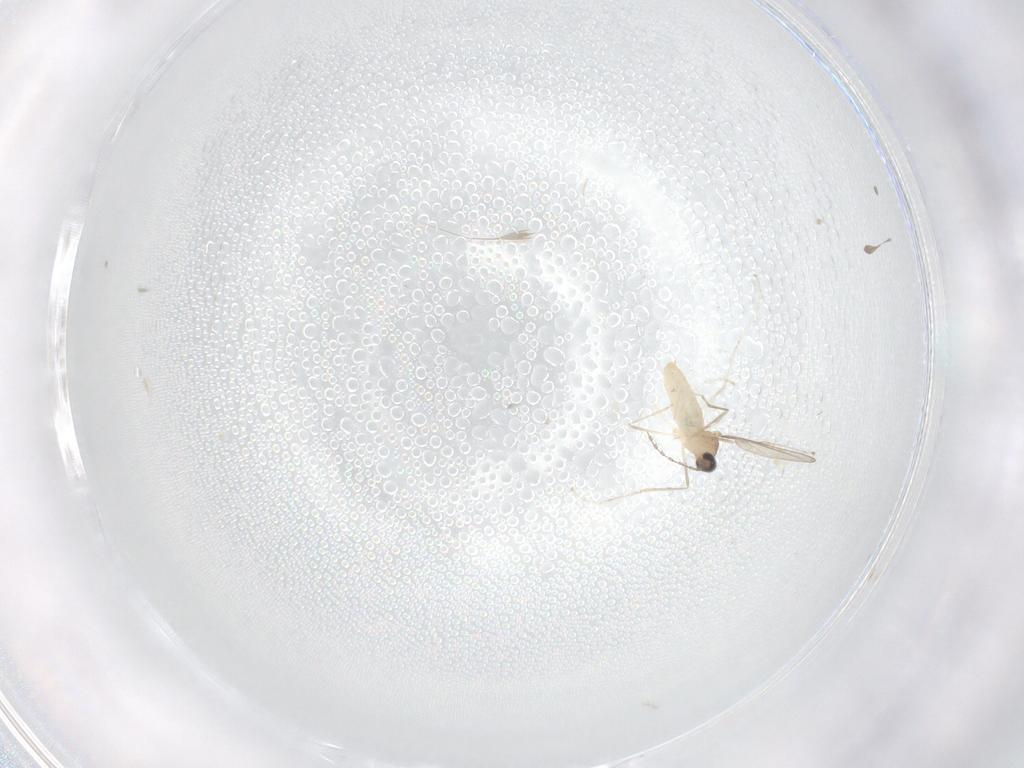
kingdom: Animalia
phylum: Arthropoda
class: Insecta
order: Diptera
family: Cecidomyiidae
